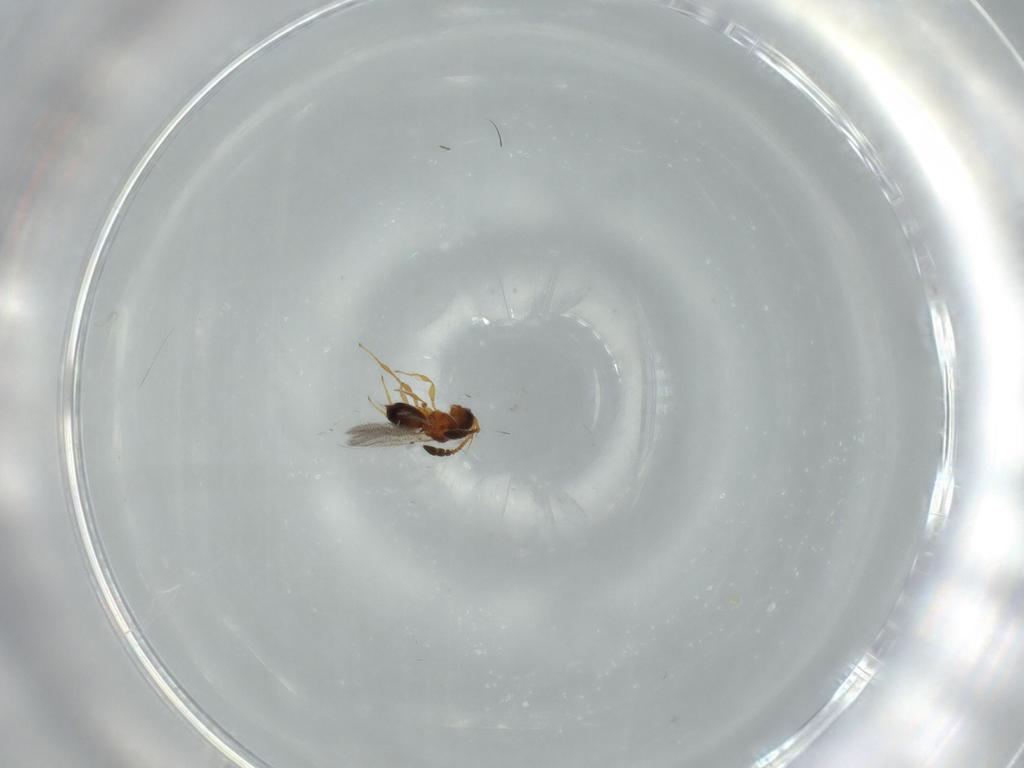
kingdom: Animalia
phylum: Arthropoda
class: Insecta
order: Hymenoptera
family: Diapriidae
